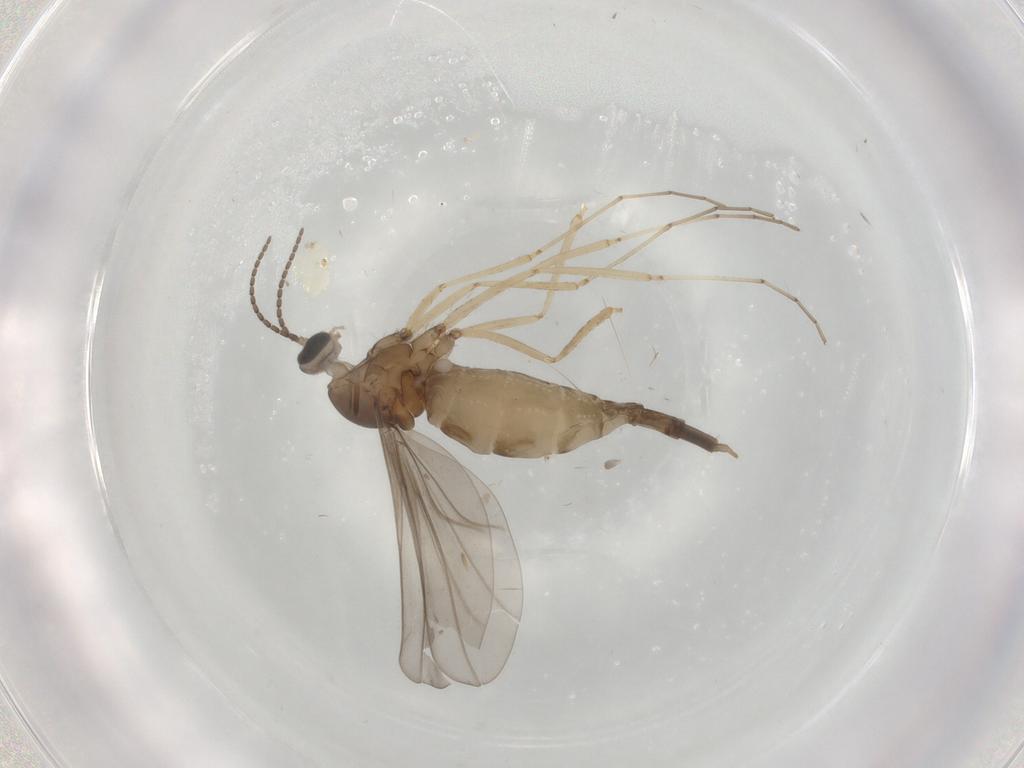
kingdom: Animalia
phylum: Arthropoda
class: Insecta
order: Diptera
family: Cecidomyiidae
